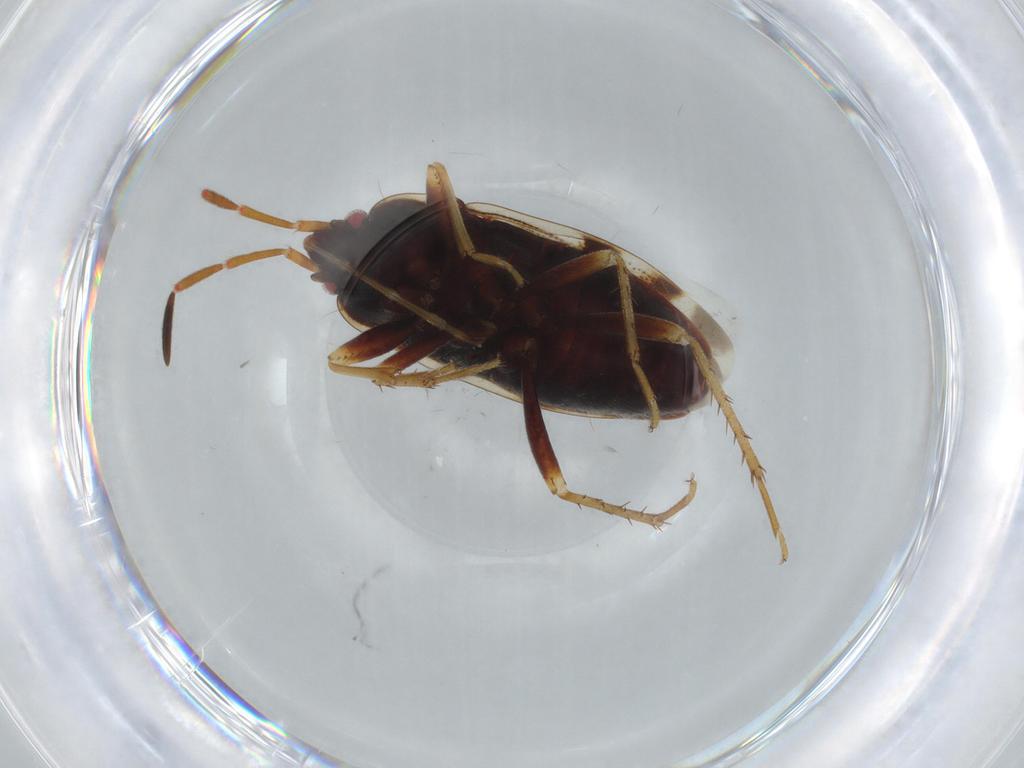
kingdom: Animalia
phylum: Arthropoda
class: Insecta
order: Hemiptera
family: Rhyparochromidae
